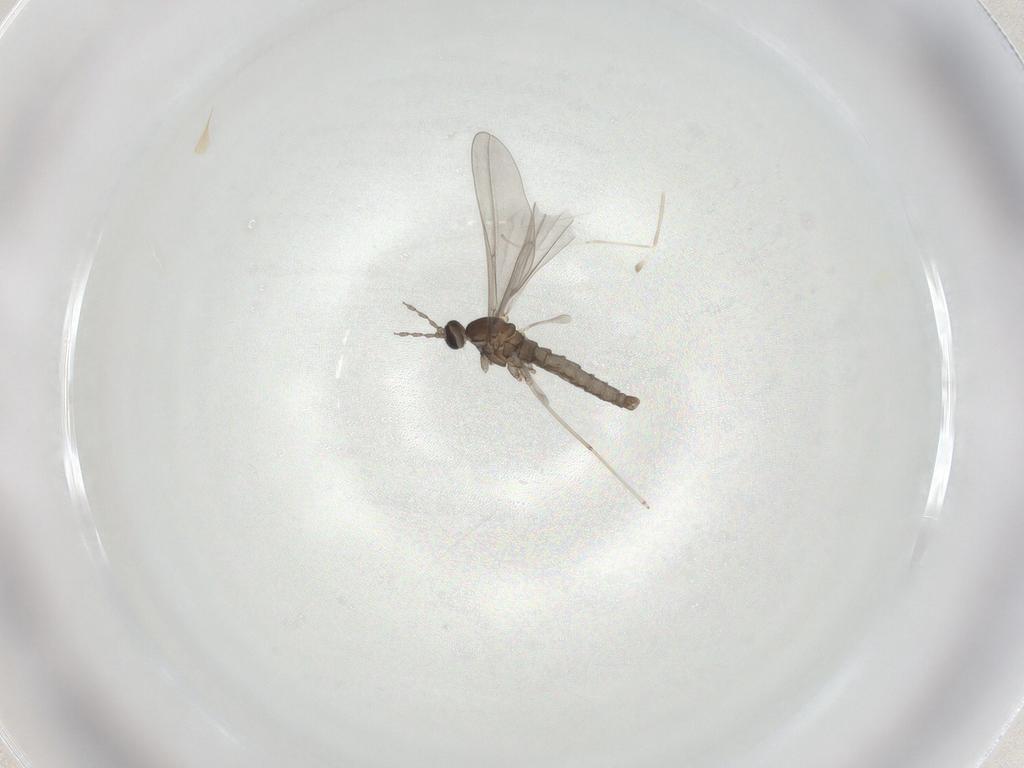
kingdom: Animalia
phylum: Arthropoda
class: Insecta
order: Diptera
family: Cecidomyiidae
